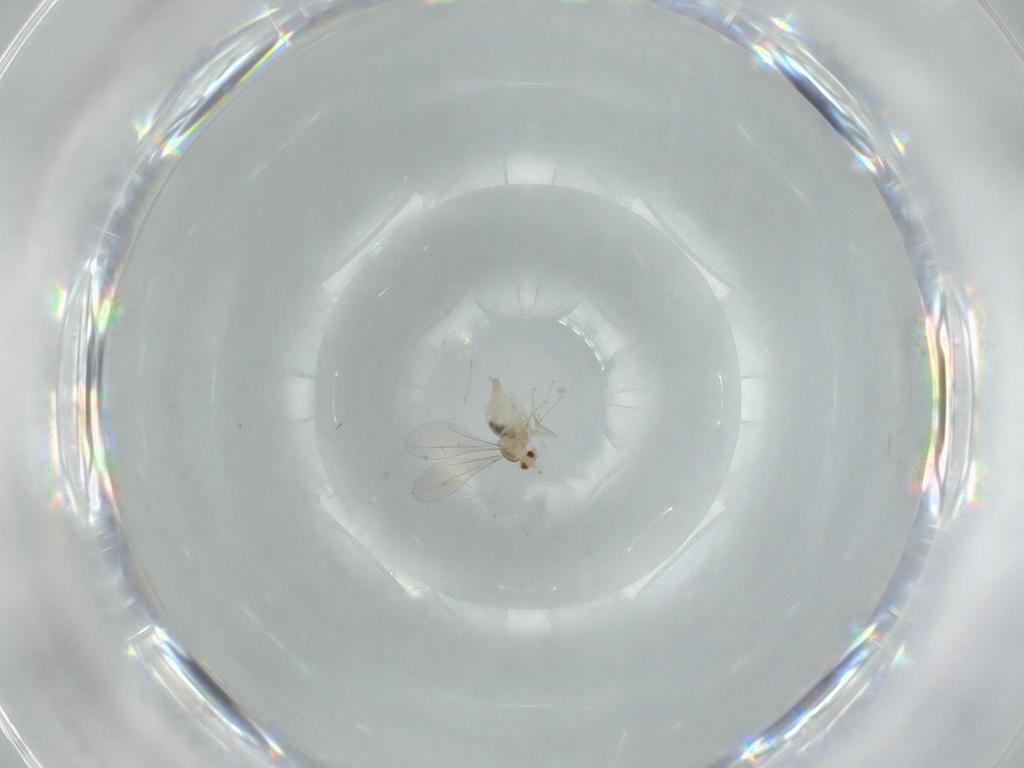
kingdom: Animalia
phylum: Arthropoda
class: Insecta
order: Diptera
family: Cecidomyiidae
